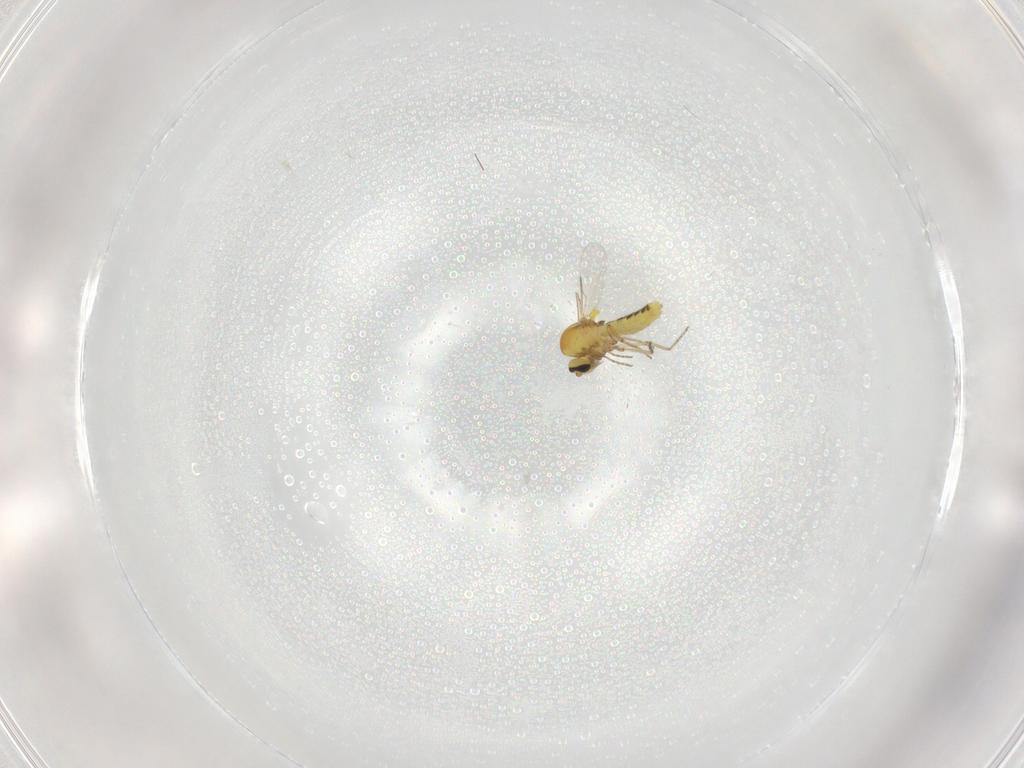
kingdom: Animalia
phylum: Arthropoda
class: Insecta
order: Diptera
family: Ceratopogonidae
